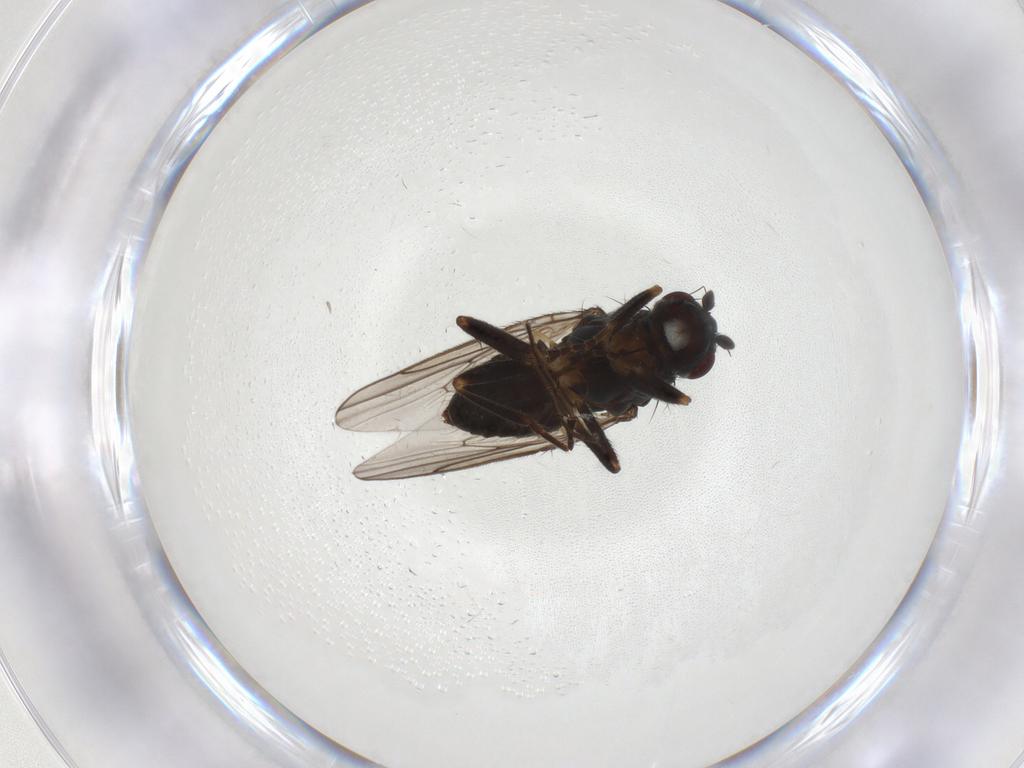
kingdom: Animalia
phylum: Arthropoda
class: Insecta
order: Diptera
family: Sphaeroceridae
